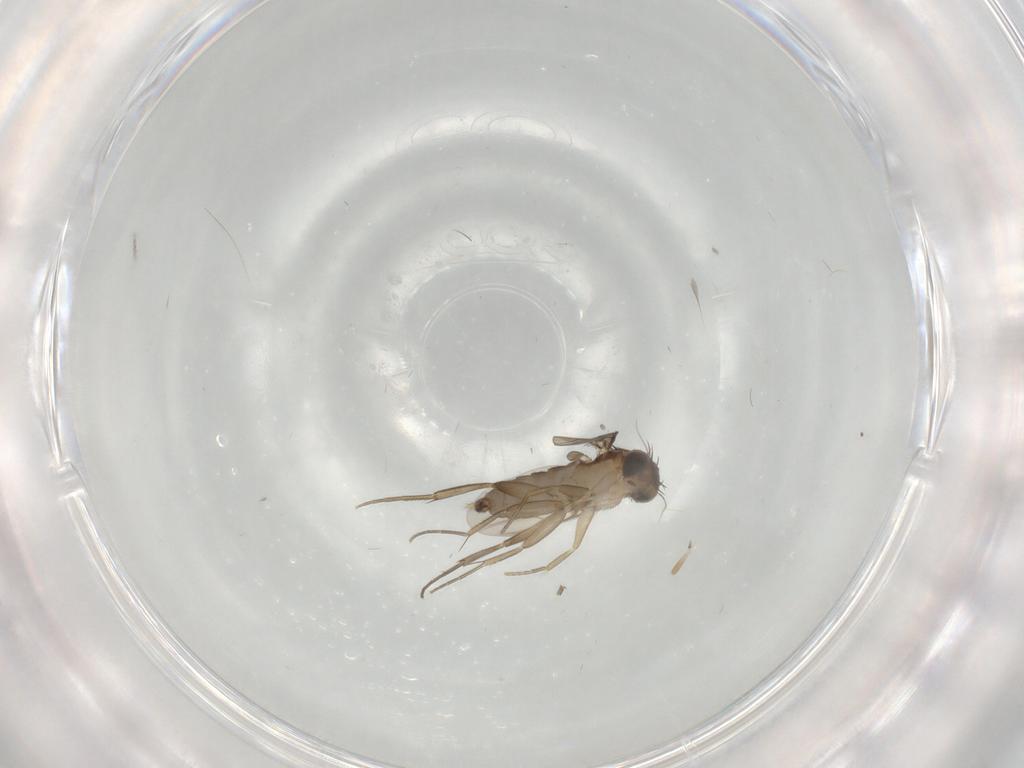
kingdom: Animalia
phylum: Arthropoda
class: Insecta
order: Diptera
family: Phoridae
